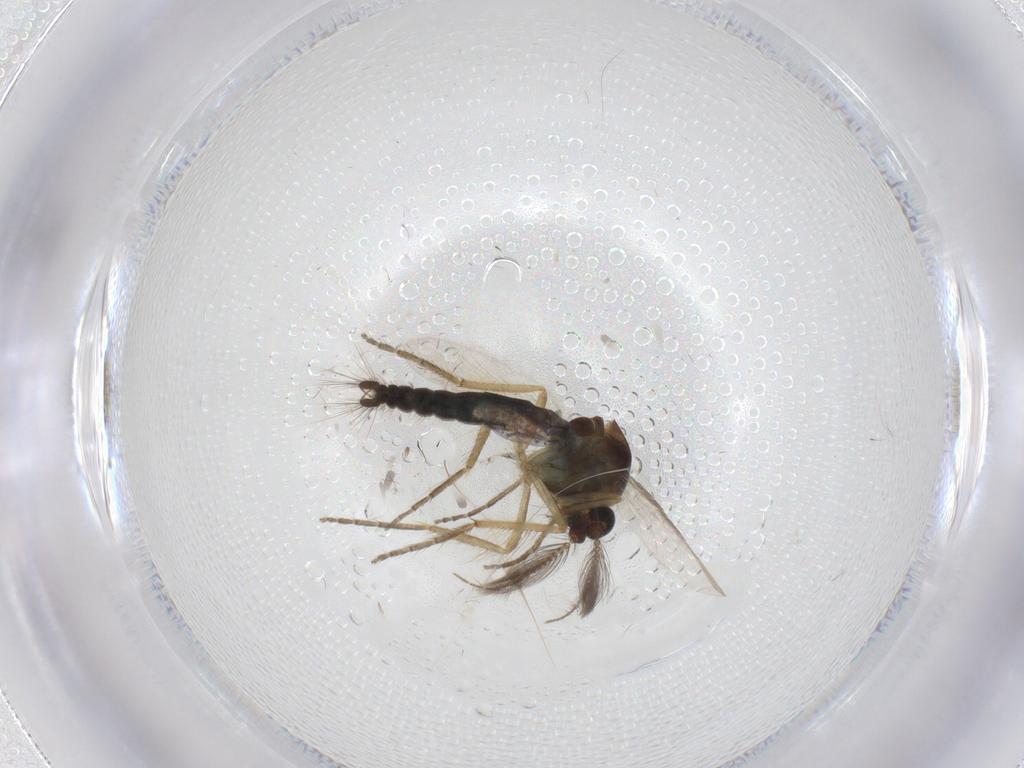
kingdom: Animalia
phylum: Arthropoda
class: Insecta
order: Diptera
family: Ceratopogonidae
